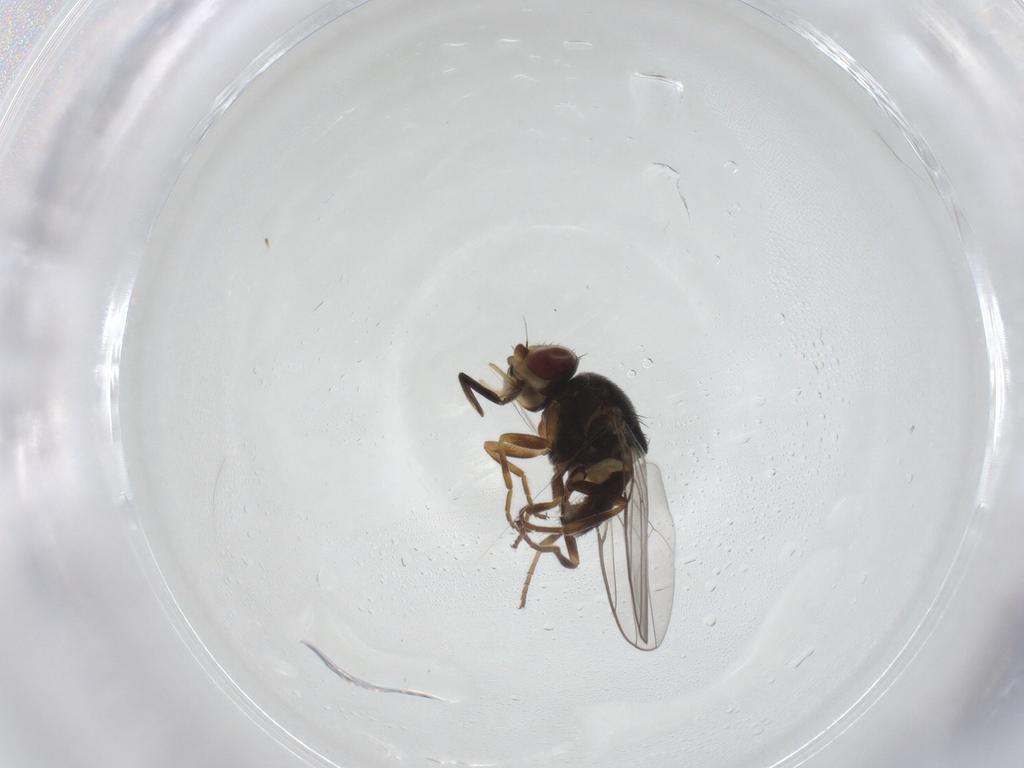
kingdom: Animalia
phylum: Arthropoda
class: Insecta
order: Diptera
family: Chloropidae
